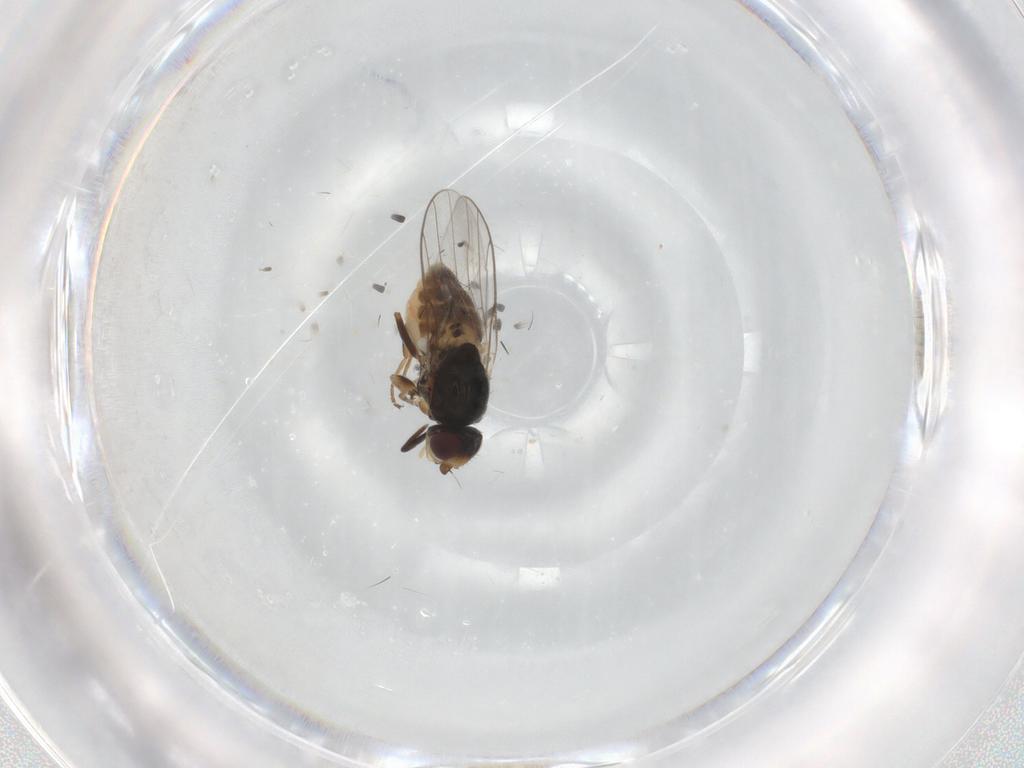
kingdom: Animalia
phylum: Arthropoda
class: Insecta
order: Diptera
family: Chloropidae
